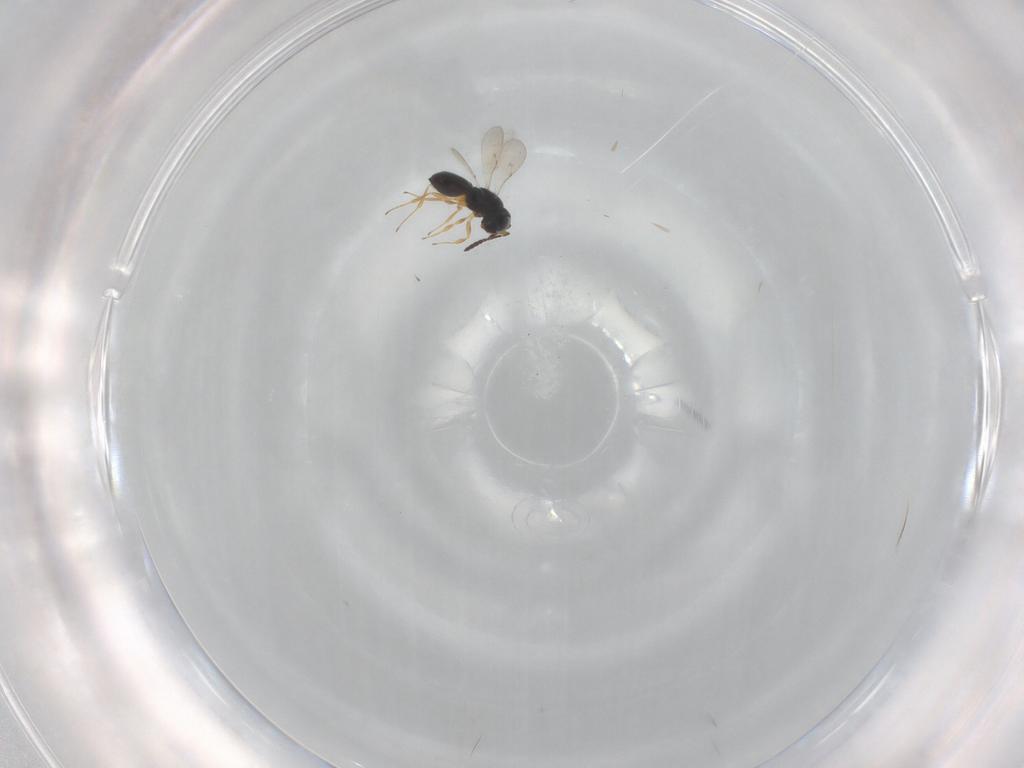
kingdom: Animalia
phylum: Arthropoda
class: Insecta
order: Hymenoptera
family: Scelionidae
